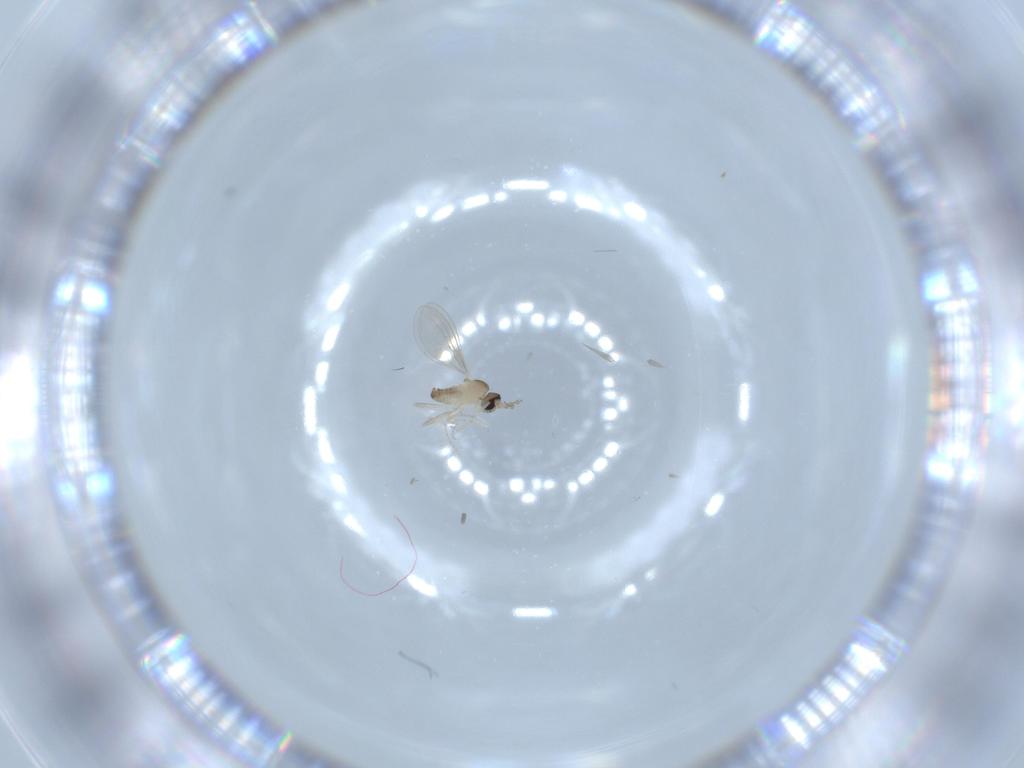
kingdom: Animalia
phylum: Arthropoda
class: Insecta
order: Diptera
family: Cecidomyiidae
